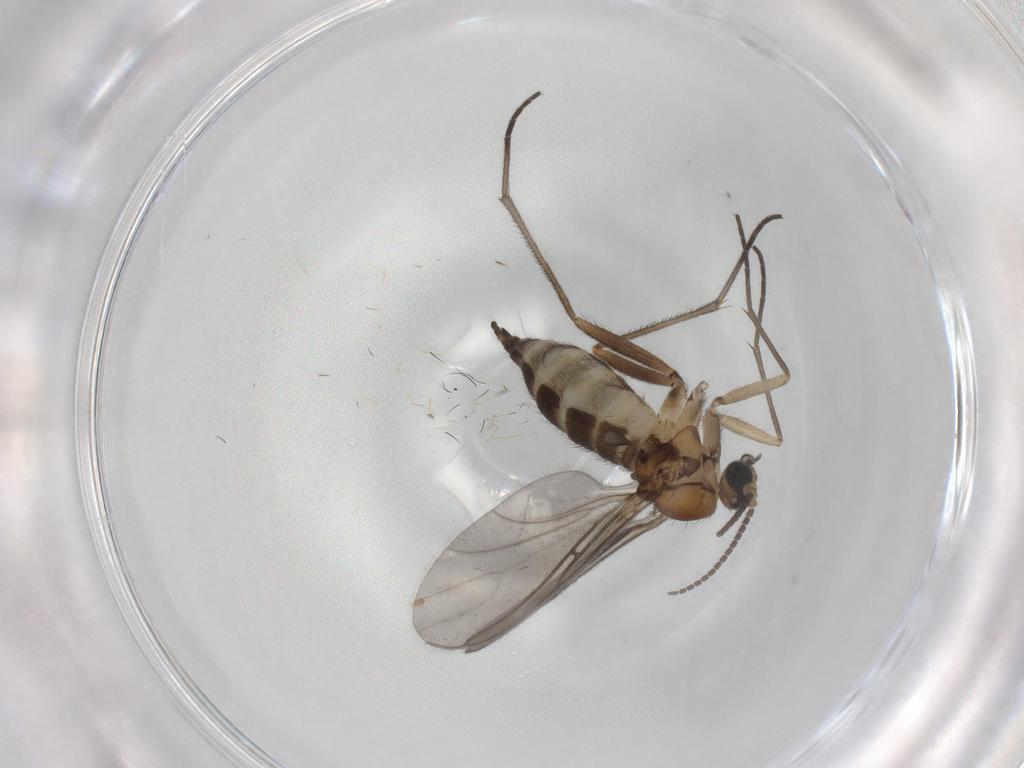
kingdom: Animalia
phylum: Arthropoda
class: Insecta
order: Diptera
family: Sciaridae
